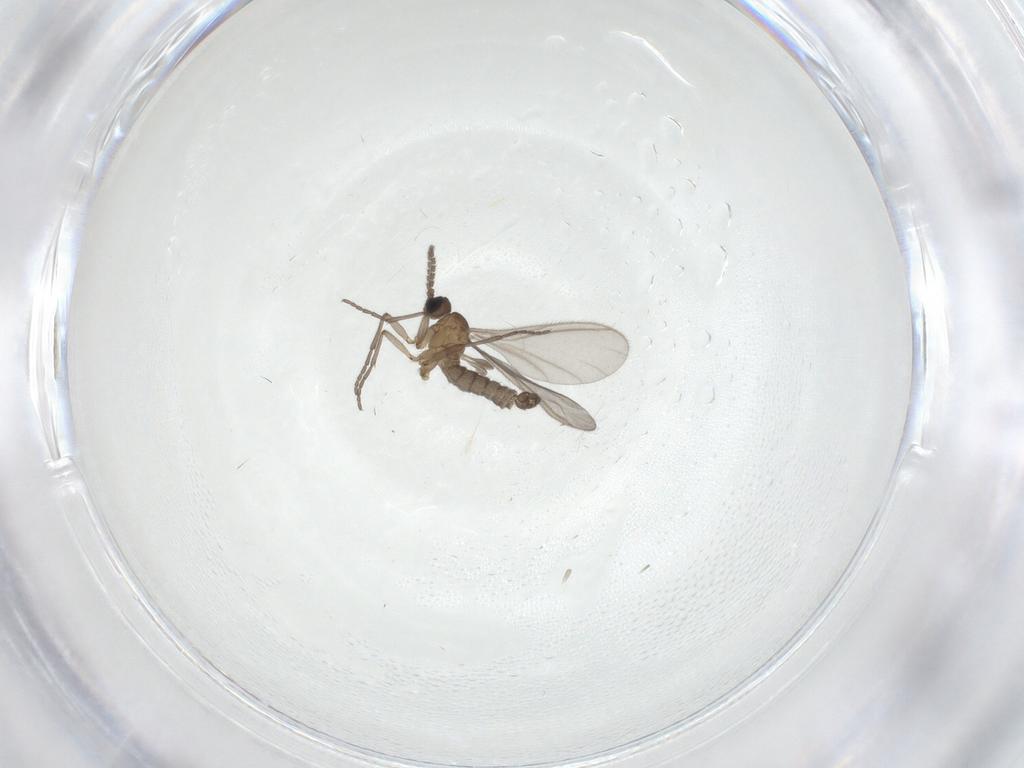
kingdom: Animalia
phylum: Arthropoda
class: Insecta
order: Diptera
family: Sciaridae
